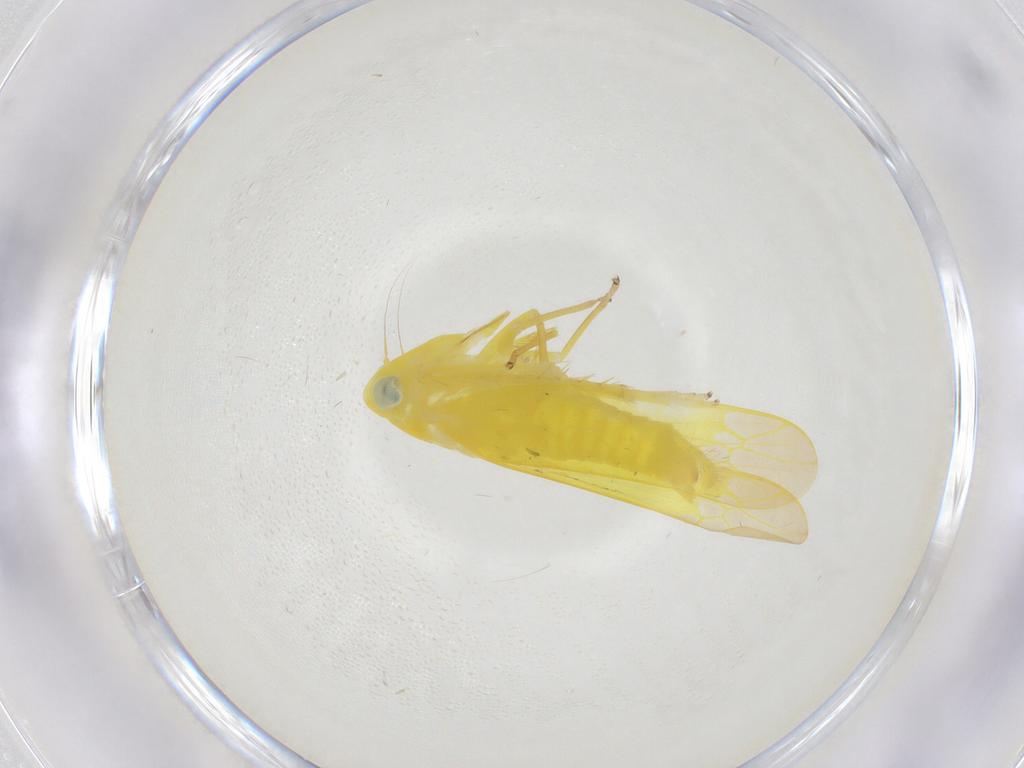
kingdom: Animalia
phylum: Arthropoda
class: Insecta
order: Hemiptera
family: Cicadellidae
